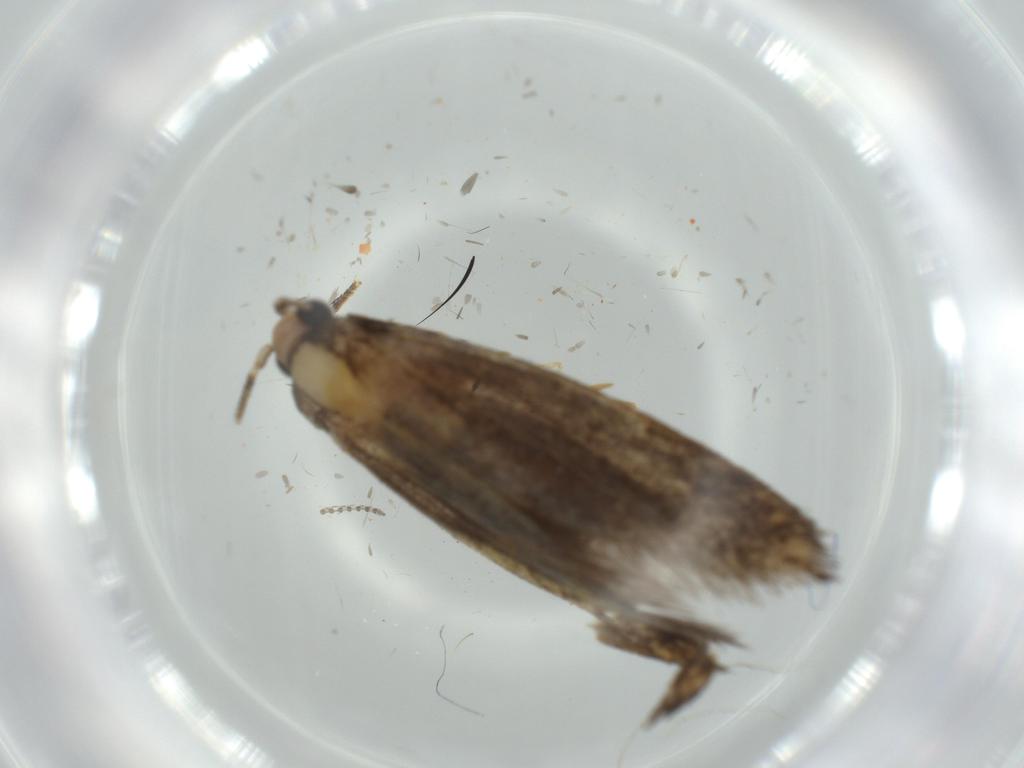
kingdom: Animalia
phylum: Arthropoda
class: Insecta
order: Lepidoptera
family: Tineidae
